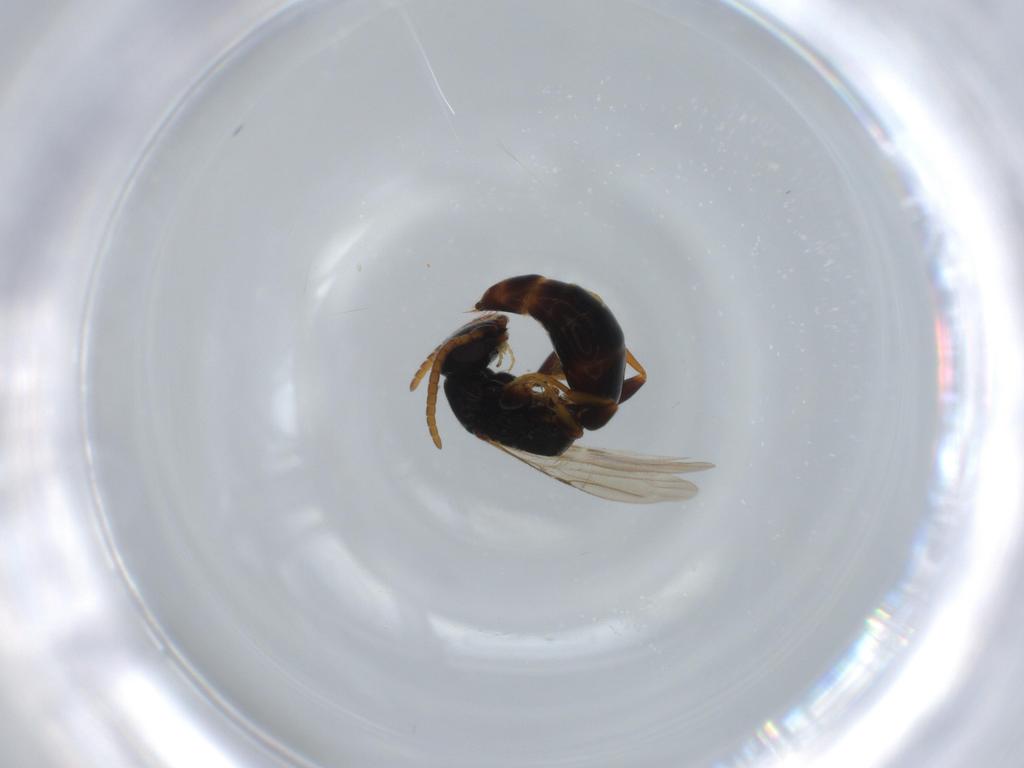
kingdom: Animalia
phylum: Arthropoda
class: Insecta
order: Hymenoptera
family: Bethylidae
